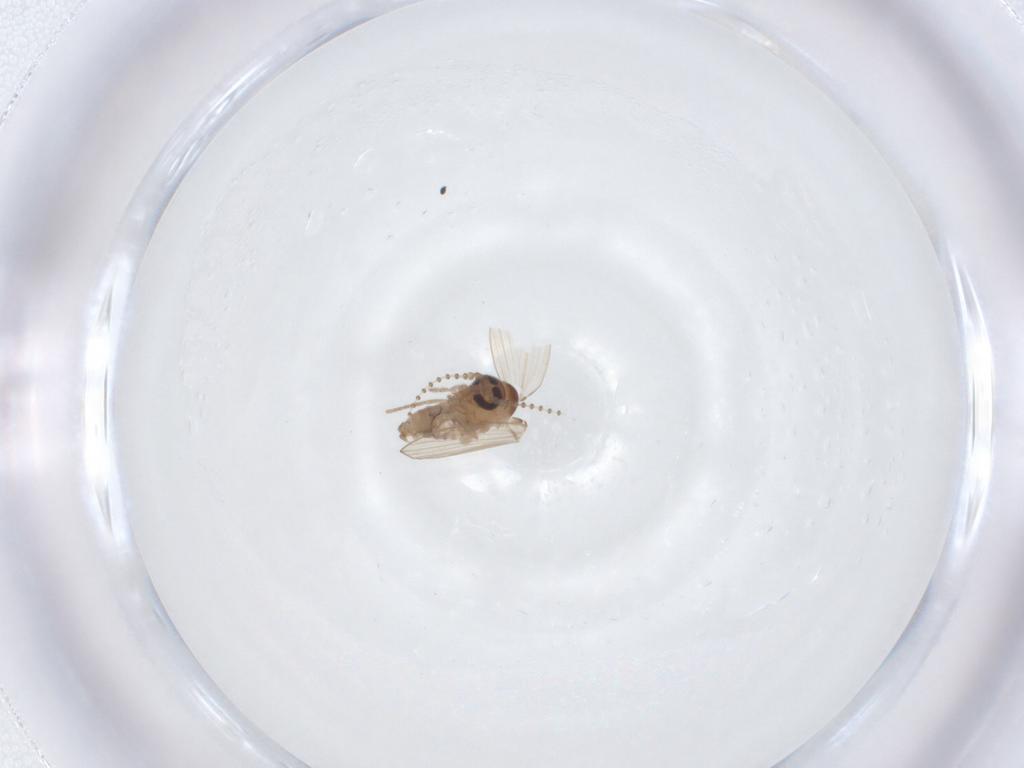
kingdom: Animalia
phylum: Arthropoda
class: Insecta
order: Diptera
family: Psychodidae
